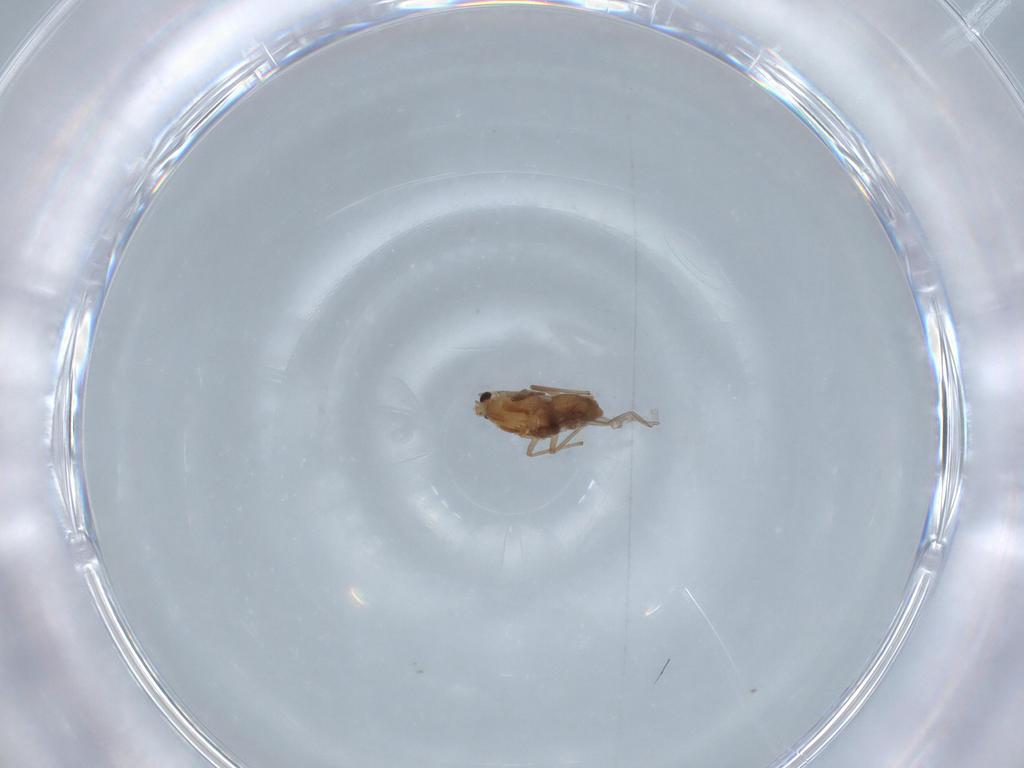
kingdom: Animalia
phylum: Arthropoda
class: Insecta
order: Diptera
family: Chironomidae
